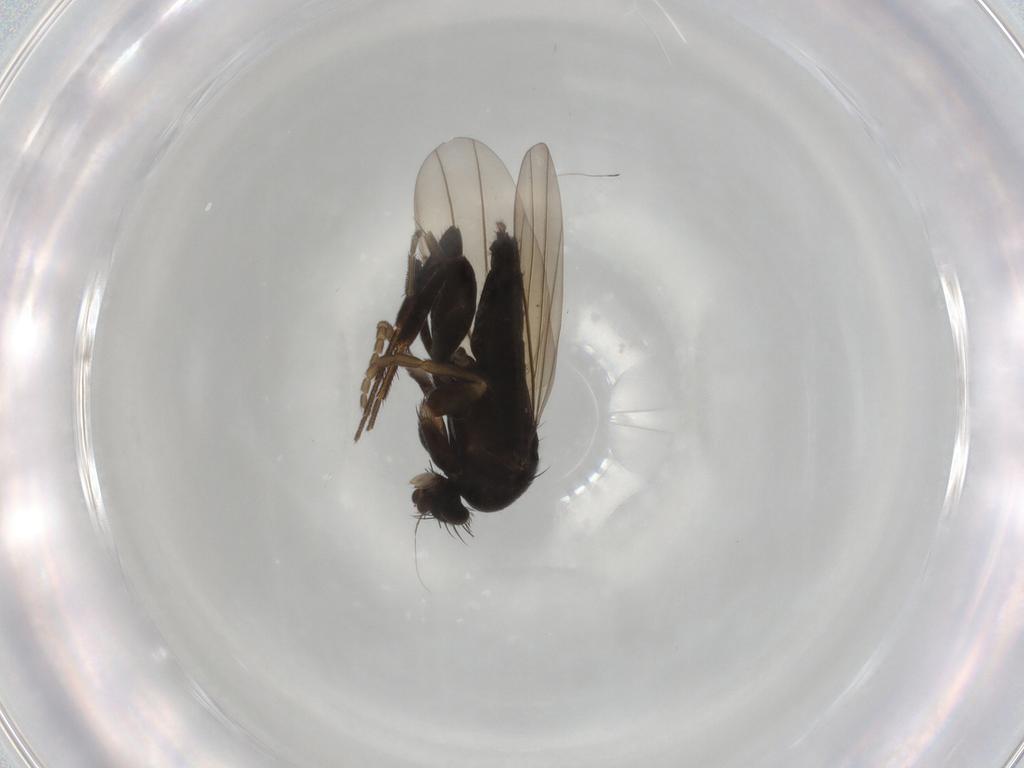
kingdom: Animalia
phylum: Arthropoda
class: Insecta
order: Diptera
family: Phoridae
